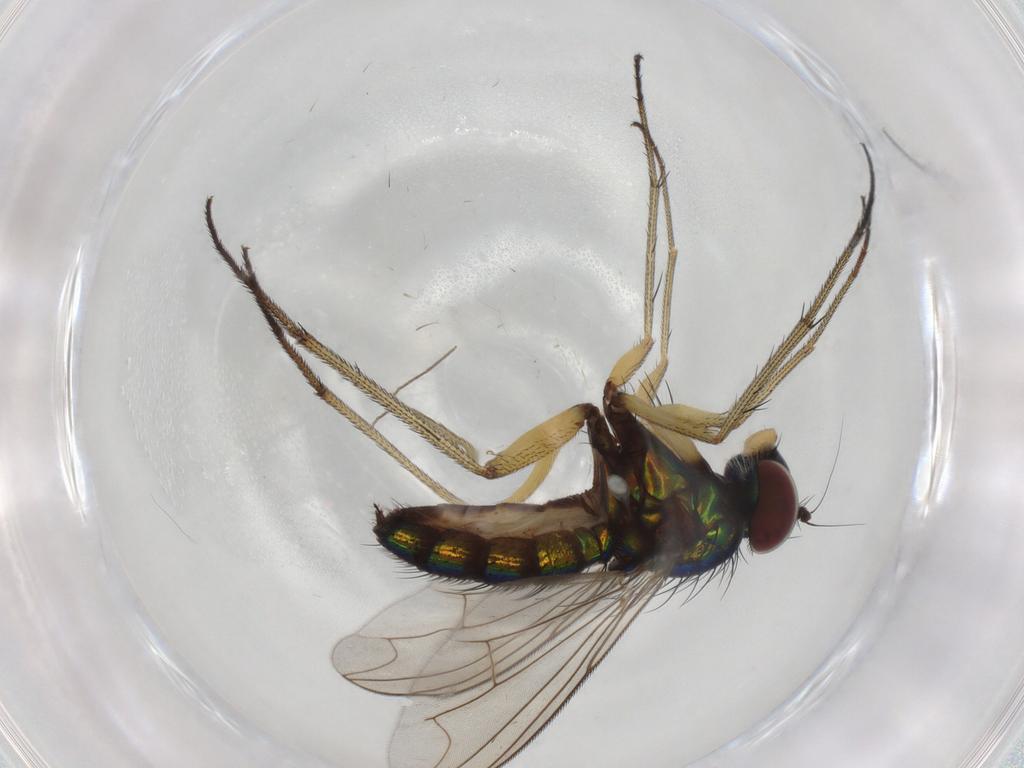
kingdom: Animalia
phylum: Arthropoda
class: Insecta
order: Diptera
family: Dolichopodidae
